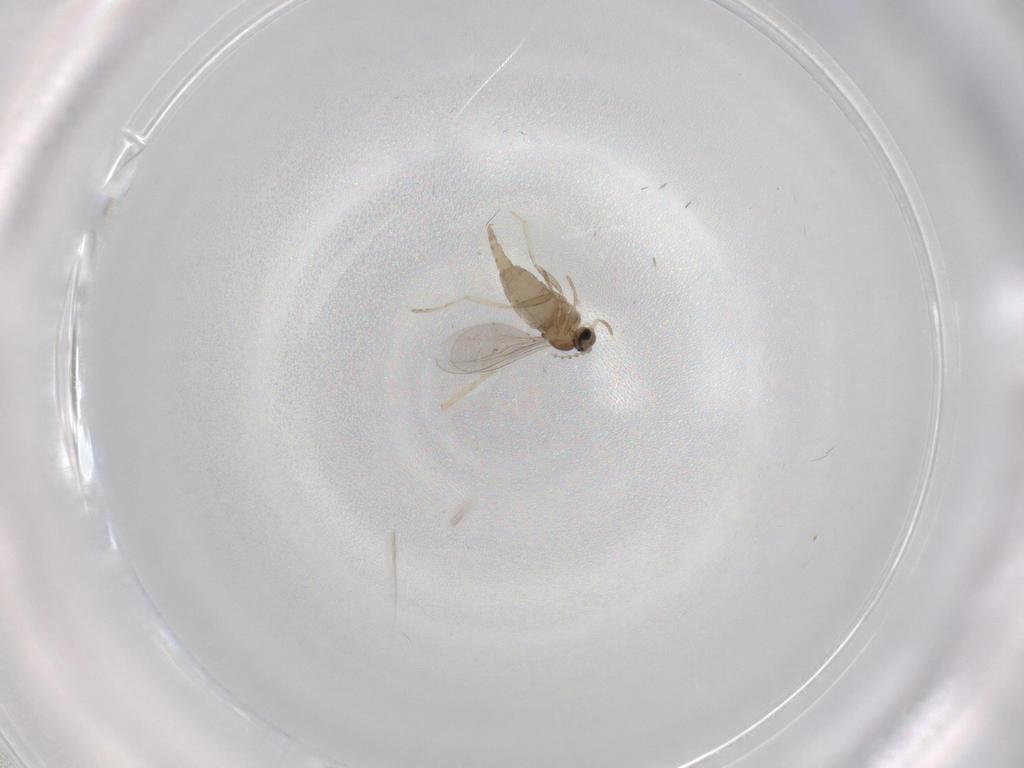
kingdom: Animalia
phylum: Arthropoda
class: Insecta
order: Diptera
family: Cecidomyiidae
